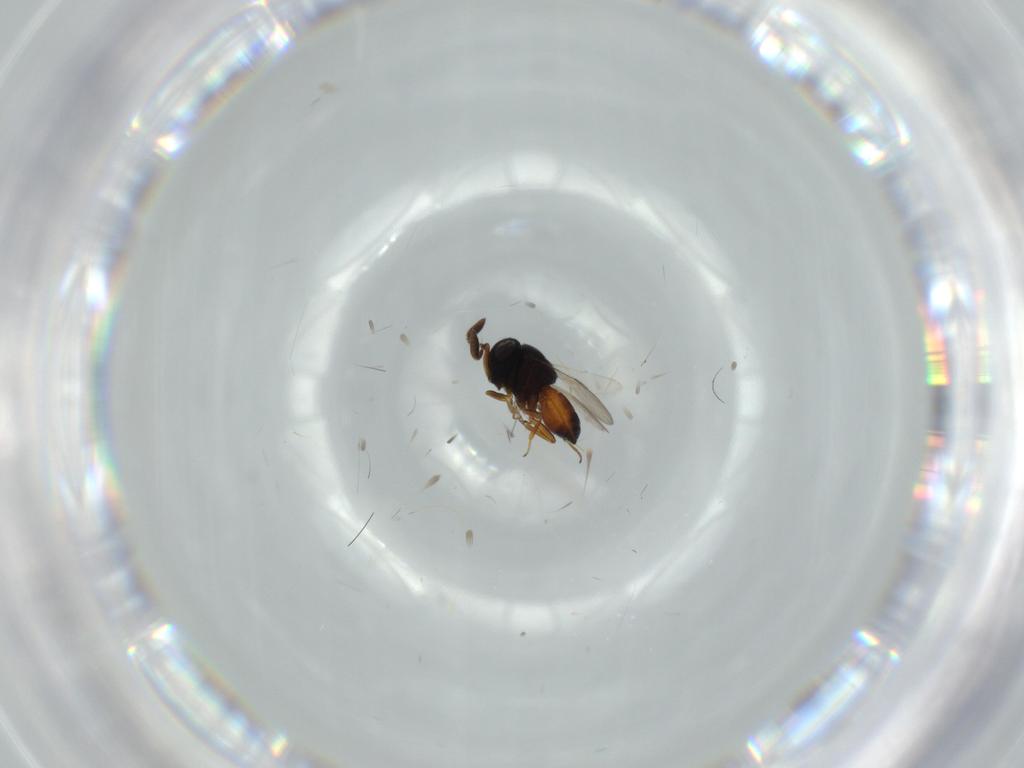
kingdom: Animalia
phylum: Arthropoda
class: Insecta
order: Hymenoptera
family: Scelionidae
